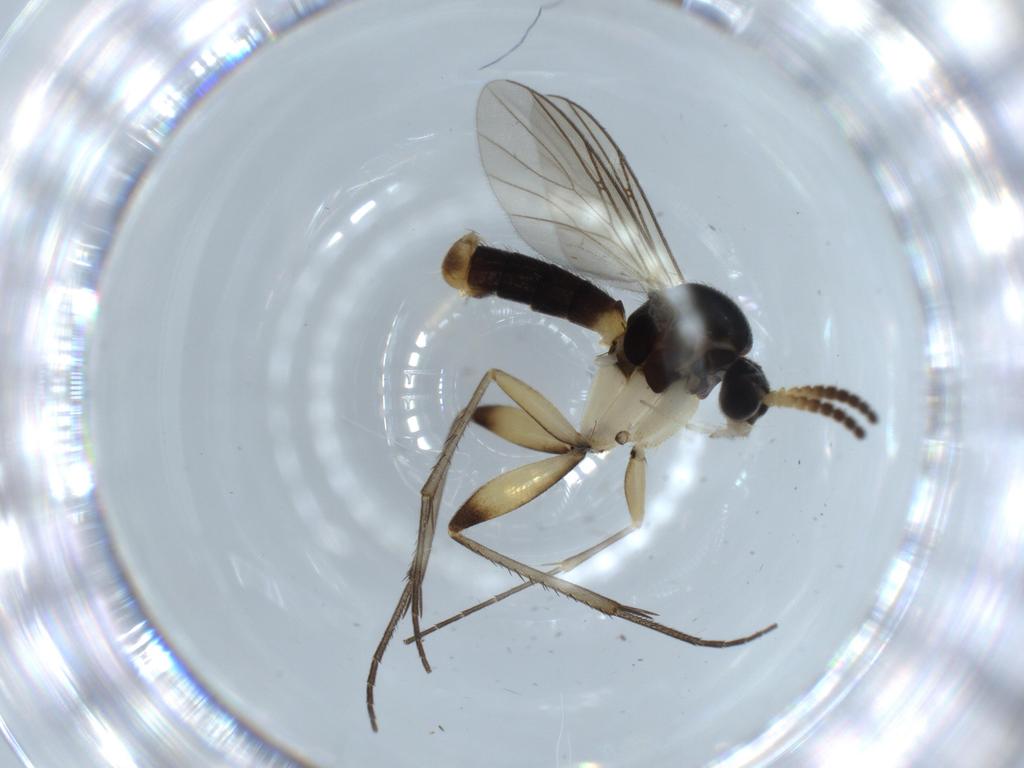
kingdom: Animalia
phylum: Arthropoda
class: Insecta
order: Diptera
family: Mycetophilidae
